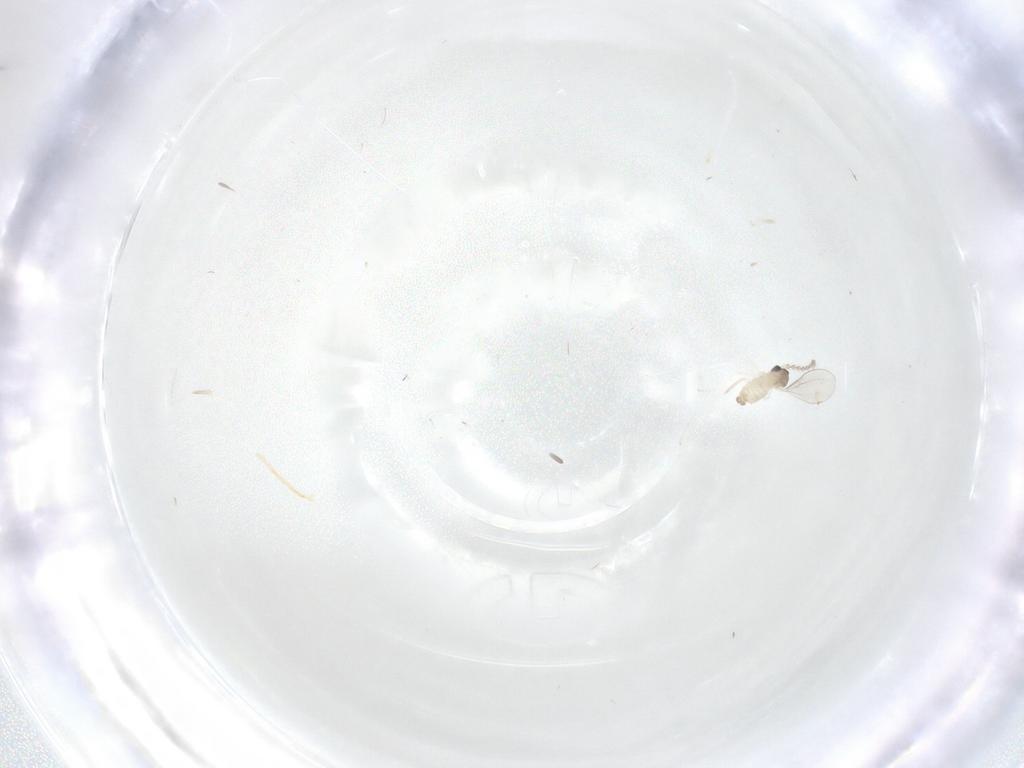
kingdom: Animalia
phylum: Arthropoda
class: Insecta
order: Diptera
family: Cecidomyiidae
